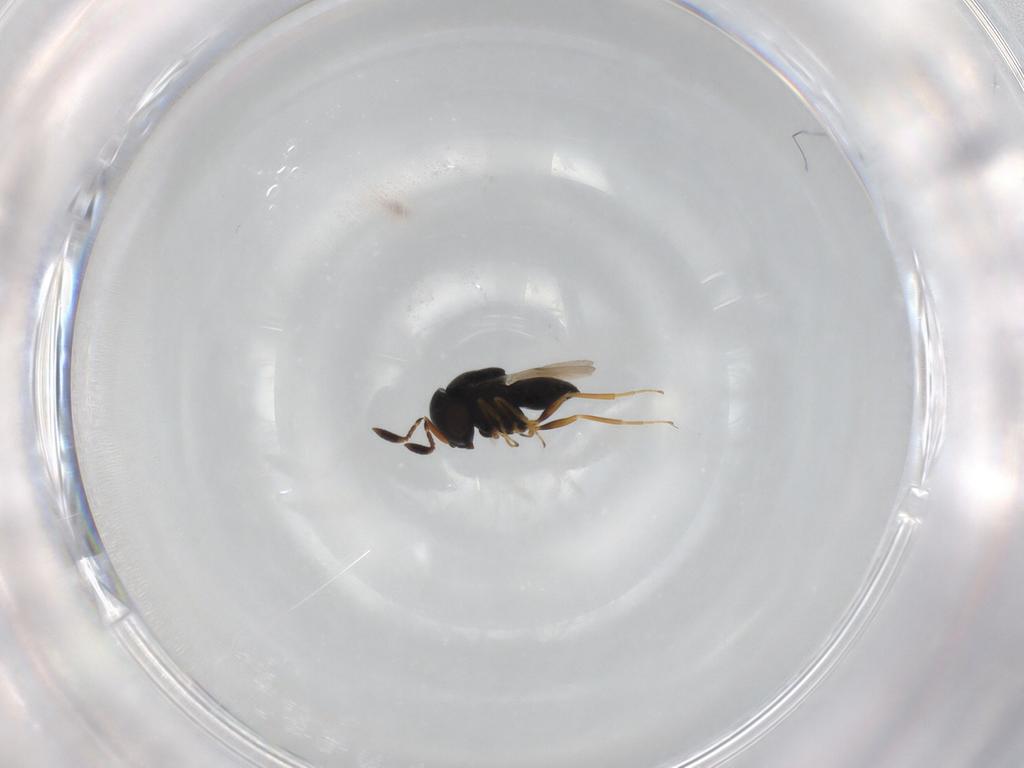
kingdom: Animalia
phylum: Arthropoda
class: Insecta
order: Hymenoptera
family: Scelionidae
